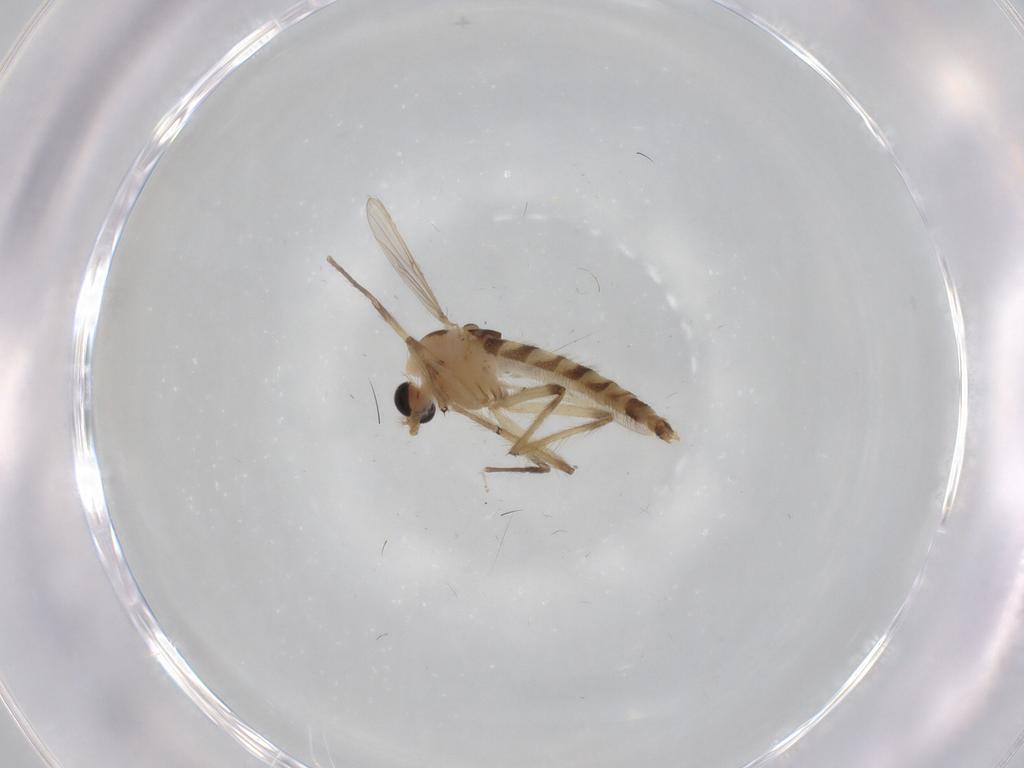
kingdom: Animalia
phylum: Arthropoda
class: Insecta
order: Diptera
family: Chironomidae
